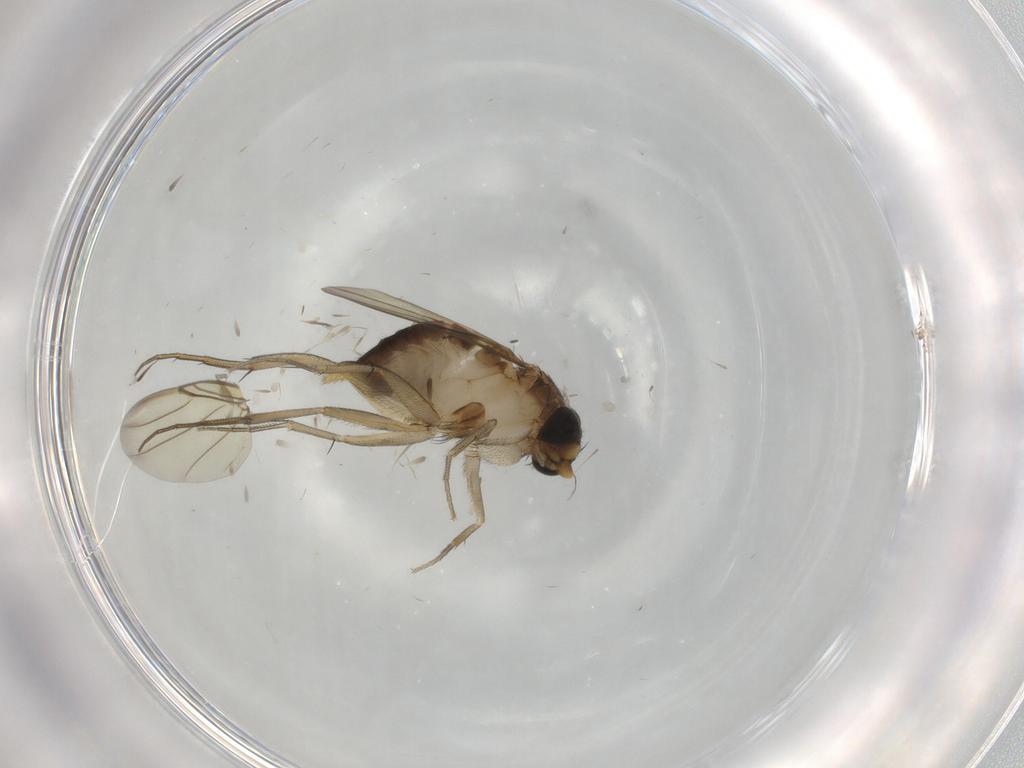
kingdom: Animalia
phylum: Arthropoda
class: Insecta
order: Diptera
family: Phoridae
